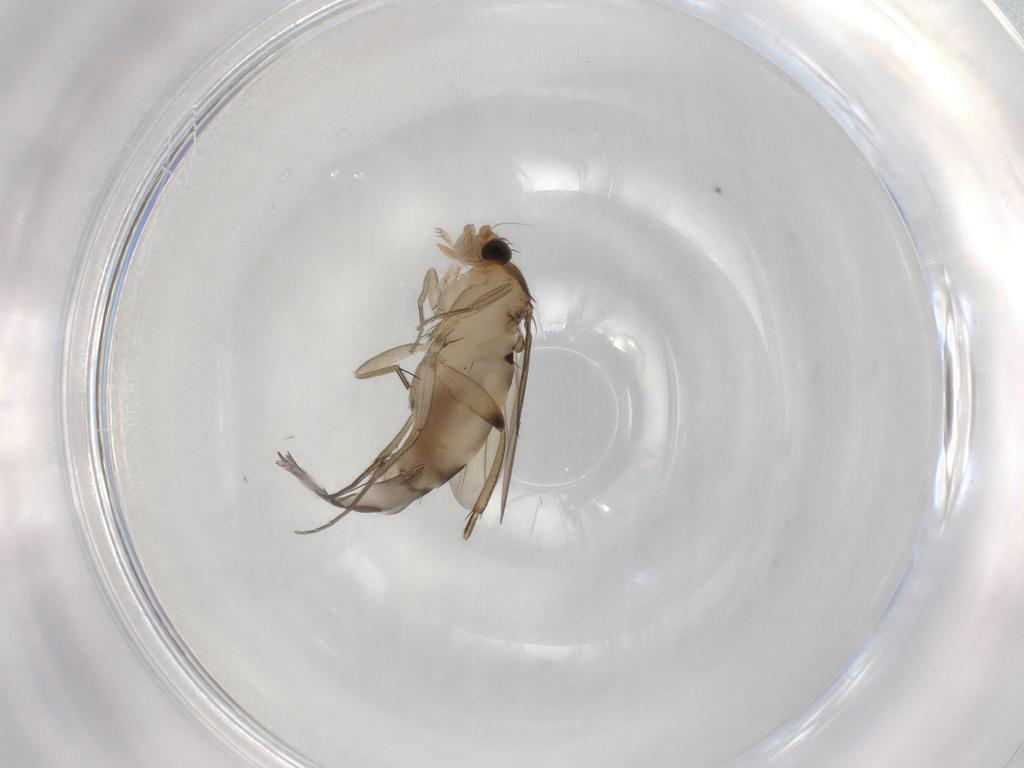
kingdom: Animalia
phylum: Arthropoda
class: Insecta
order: Diptera
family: Phoridae
